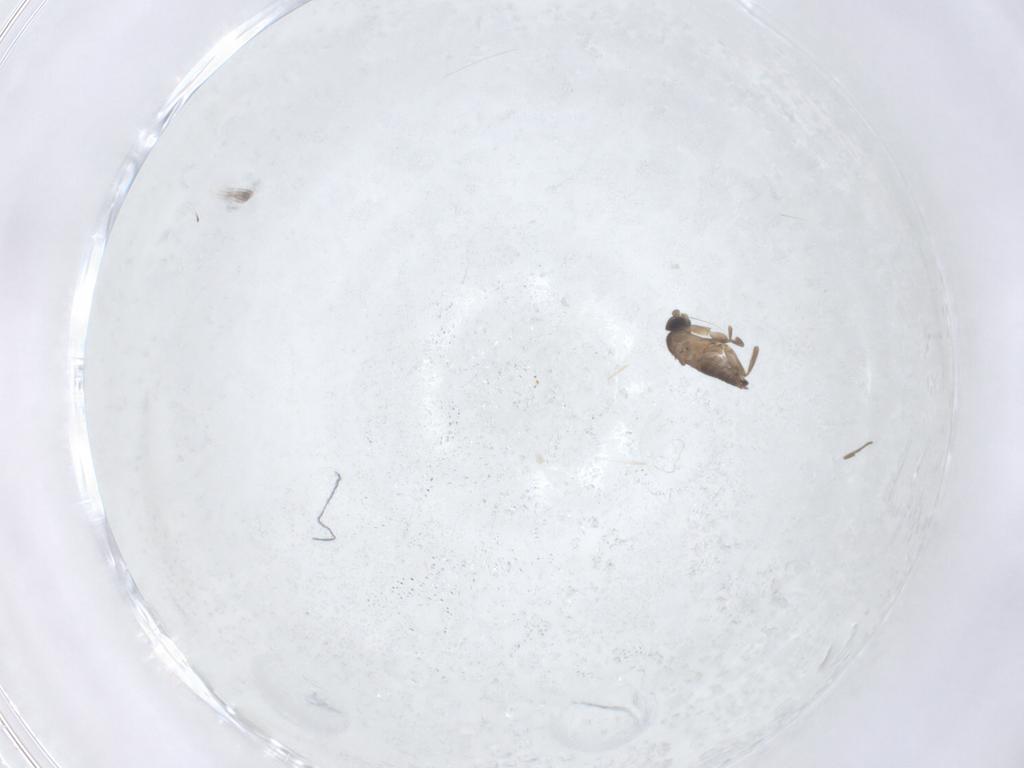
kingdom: Animalia
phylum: Arthropoda
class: Insecta
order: Diptera
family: Phoridae
